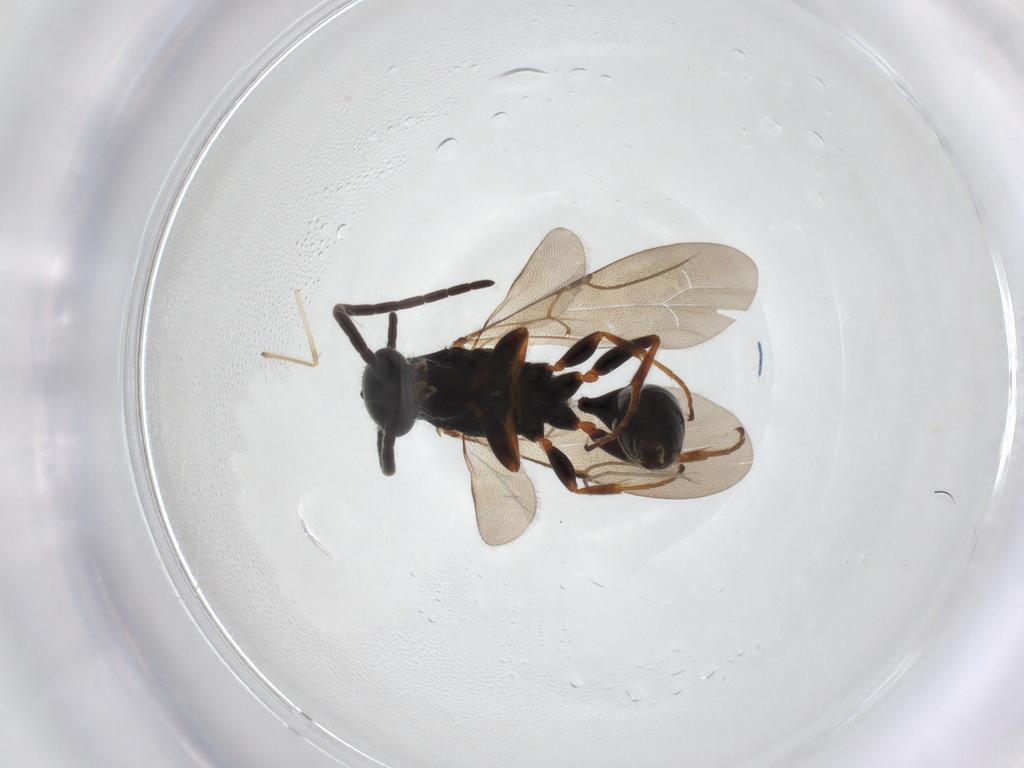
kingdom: Animalia
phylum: Arthropoda
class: Insecta
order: Hymenoptera
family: Bethylidae
